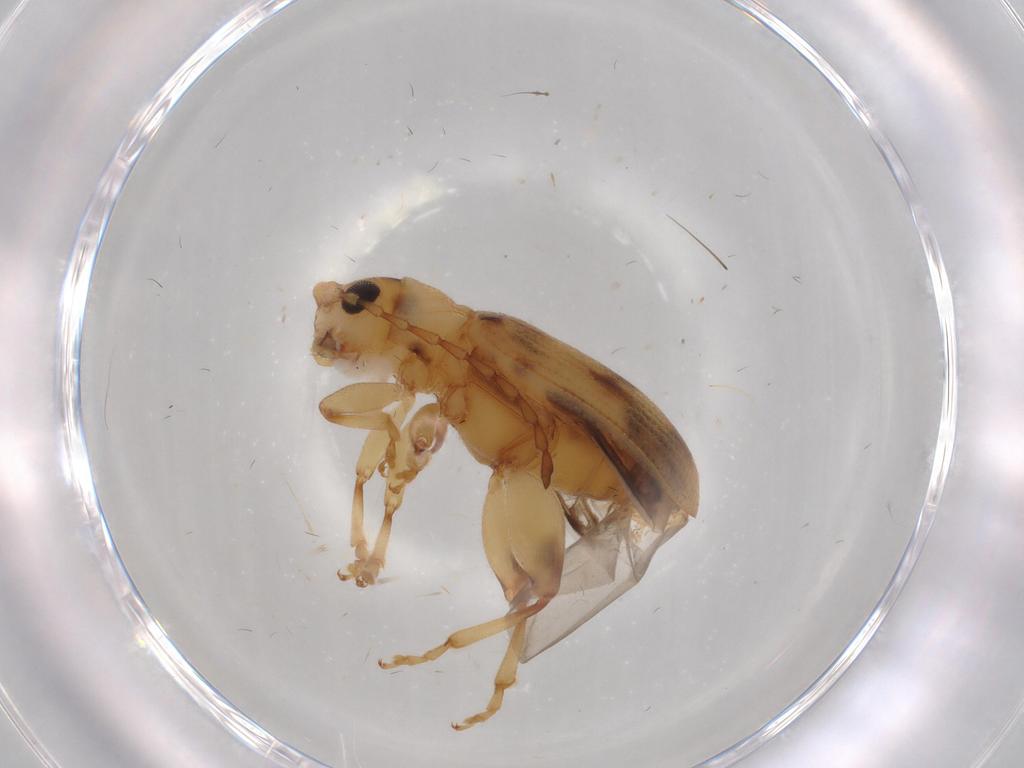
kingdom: Animalia
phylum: Arthropoda
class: Insecta
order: Coleoptera
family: Chrysomelidae
